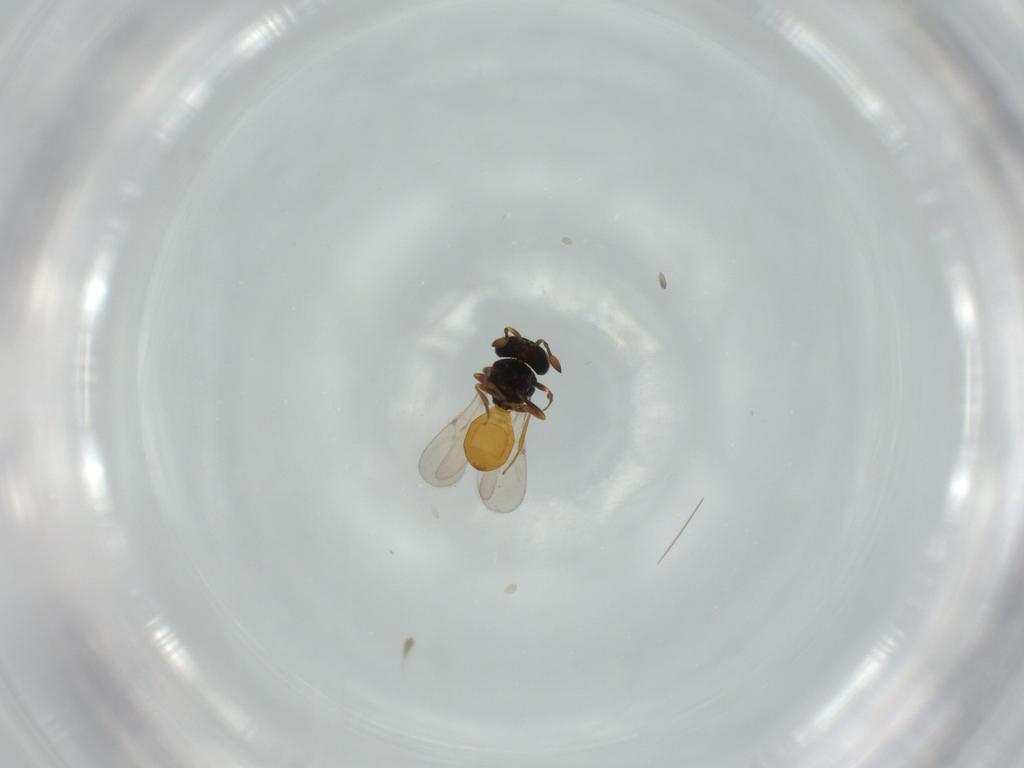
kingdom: Animalia
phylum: Arthropoda
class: Insecta
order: Hymenoptera
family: Scelionidae
